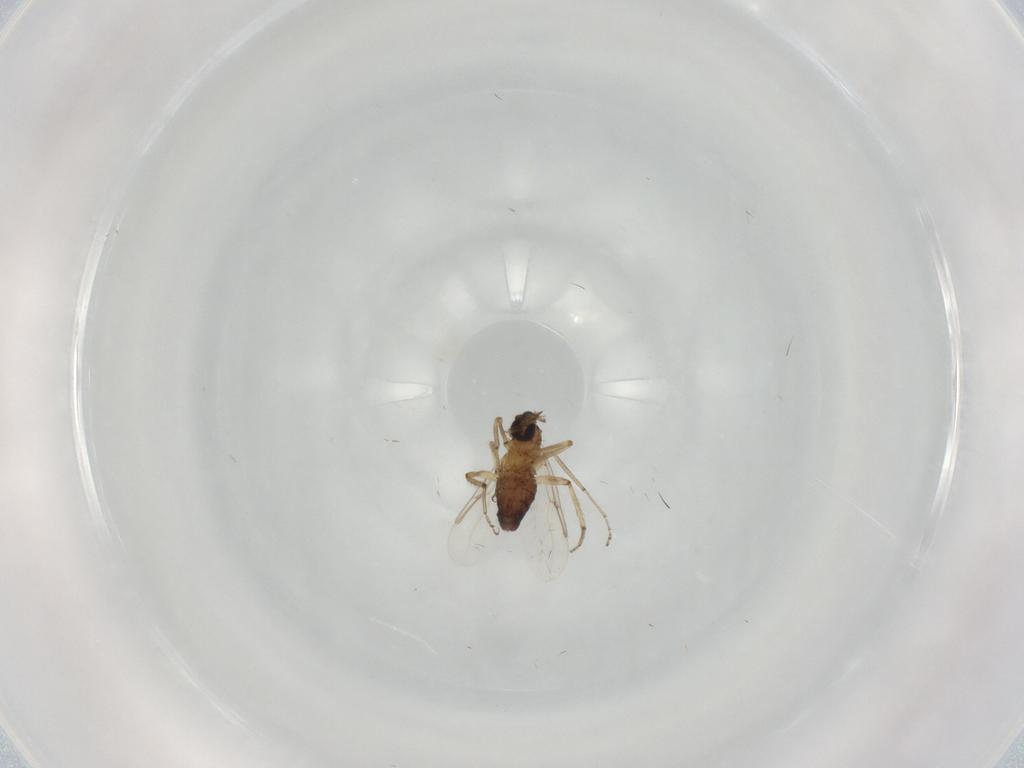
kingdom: Animalia
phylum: Arthropoda
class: Insecta
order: Diptera
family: Ceratopogonidae
